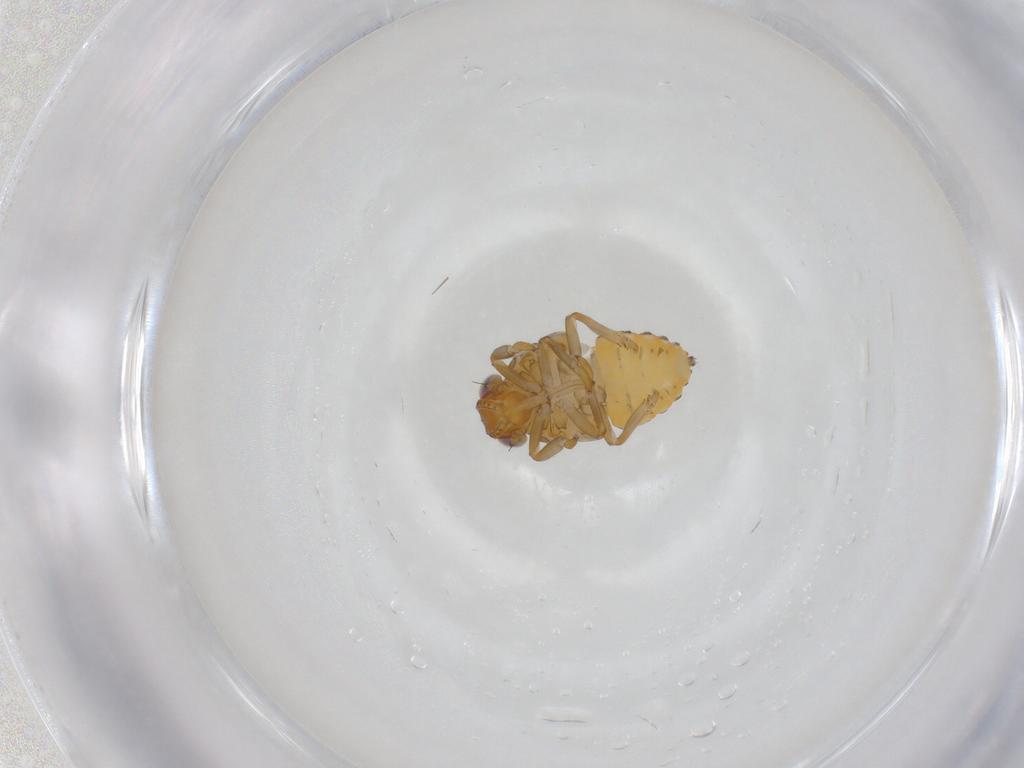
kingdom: Animalia
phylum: Arthropoda
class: Insecta
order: Hemiptera
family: Issidae
